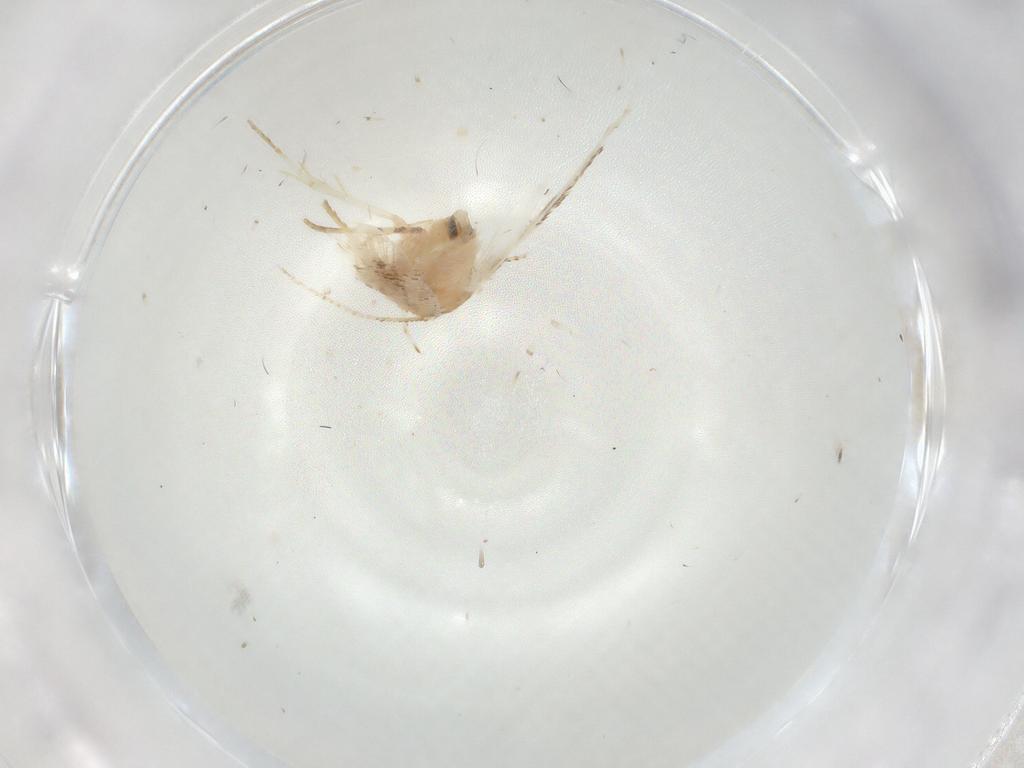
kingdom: Animalia
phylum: Arthropoda
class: Insecta
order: Lepidoptera
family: Gelechiidae
